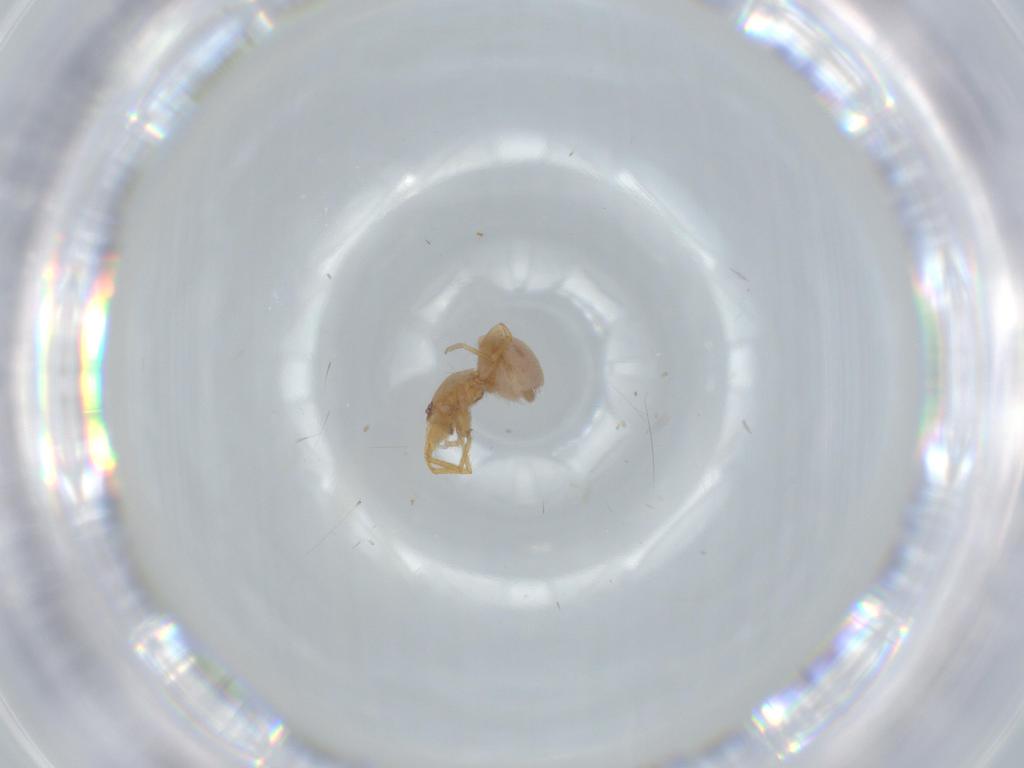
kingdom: Animalia
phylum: Arthropoda
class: Arachnida
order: Araneae
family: Oonopidae
